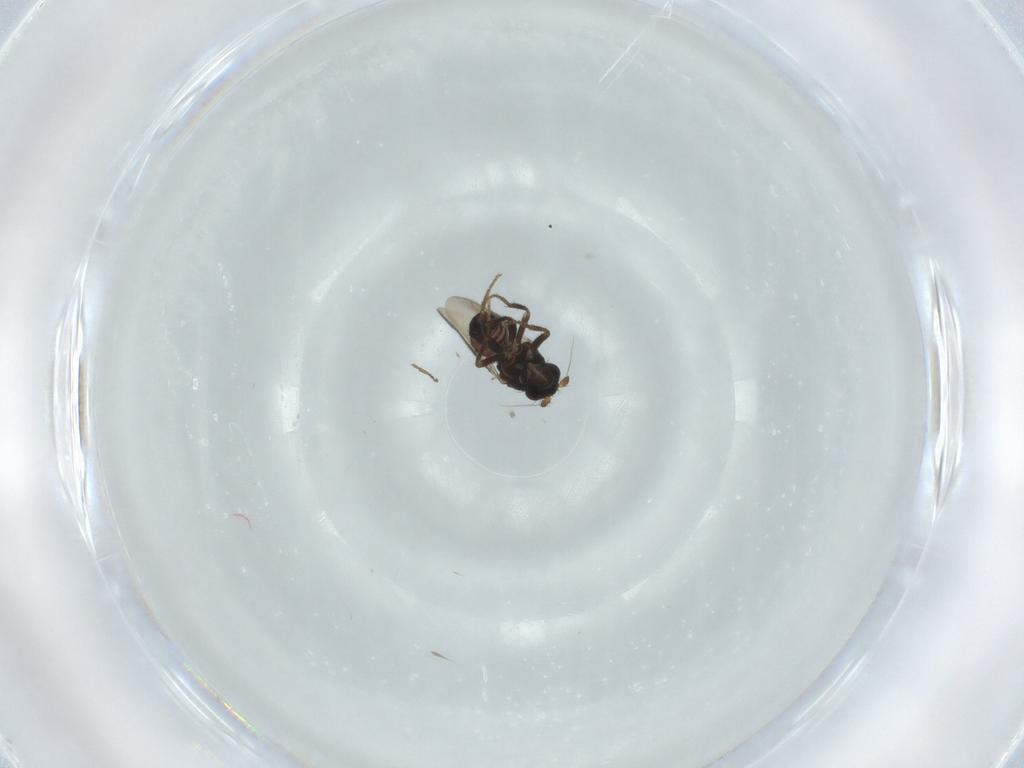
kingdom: Animalia
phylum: Arthropoda
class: Insecta
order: Diptera
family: Sphaeroceridae
